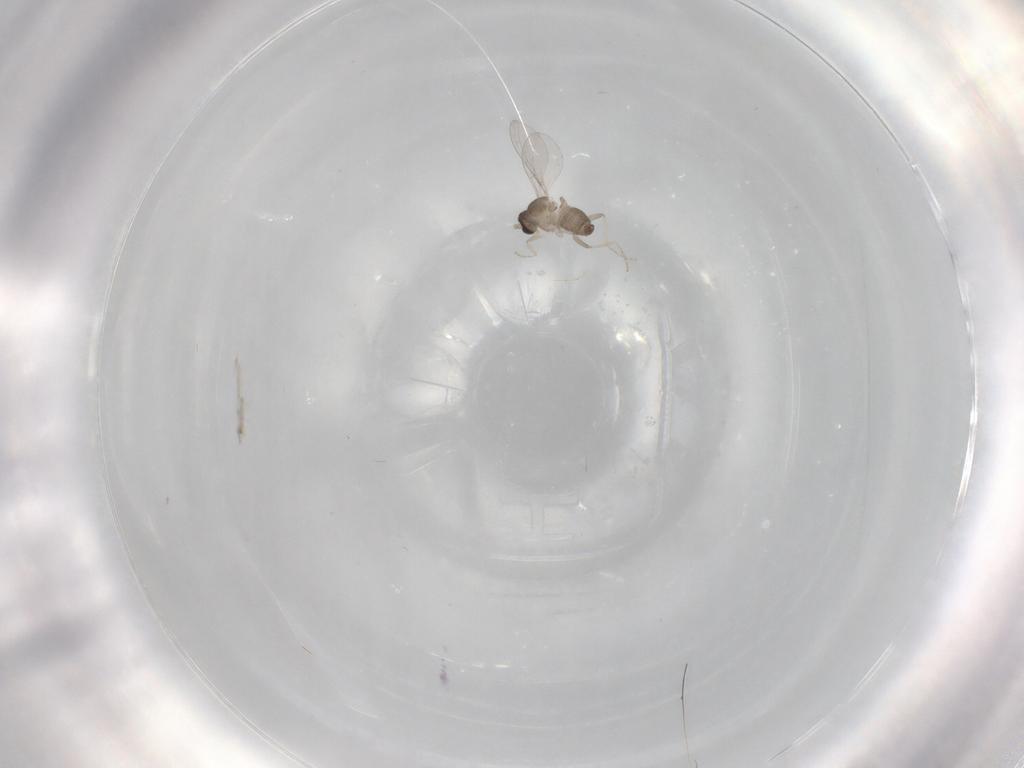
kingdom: Animalia
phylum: Arthropoda
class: Insecta
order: Diptera
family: Cecidomyiidae
